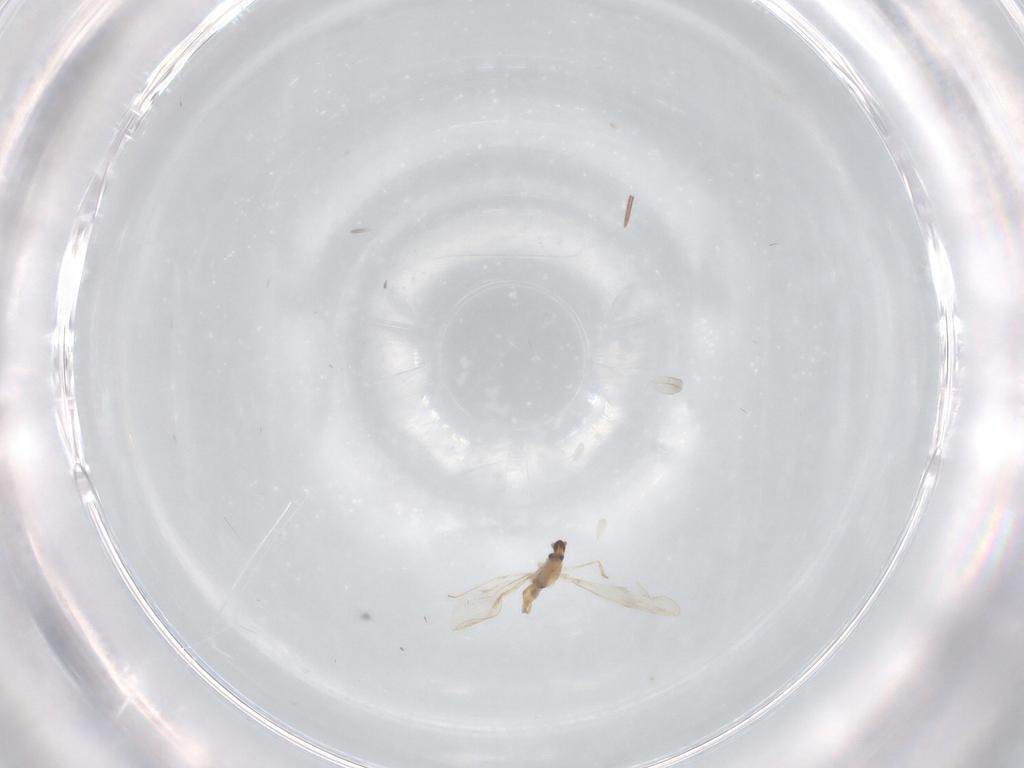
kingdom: Animalia
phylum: Arthropoda
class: Insecta
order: Diptera
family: Cecidomyiidae
